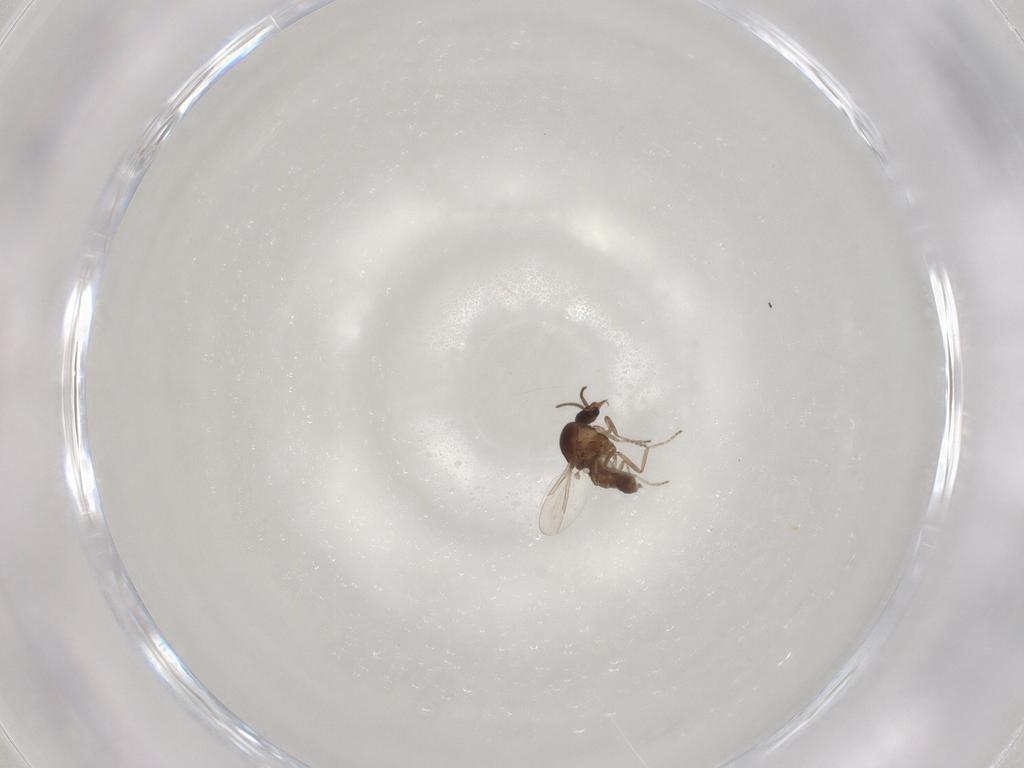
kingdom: Animalia
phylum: Arthropoda
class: Insecta
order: Diptera
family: Ceratopogonidae
